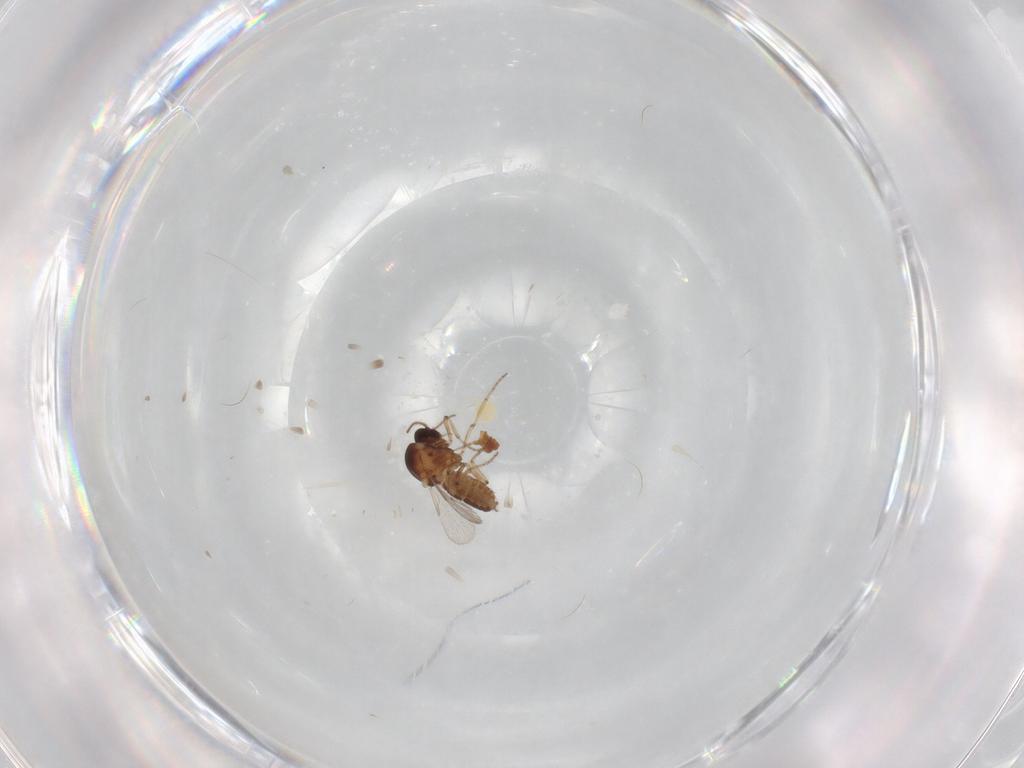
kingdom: Animalia
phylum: Arthropoda
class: Insecta
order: Diptera
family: Ceratopogonidae
